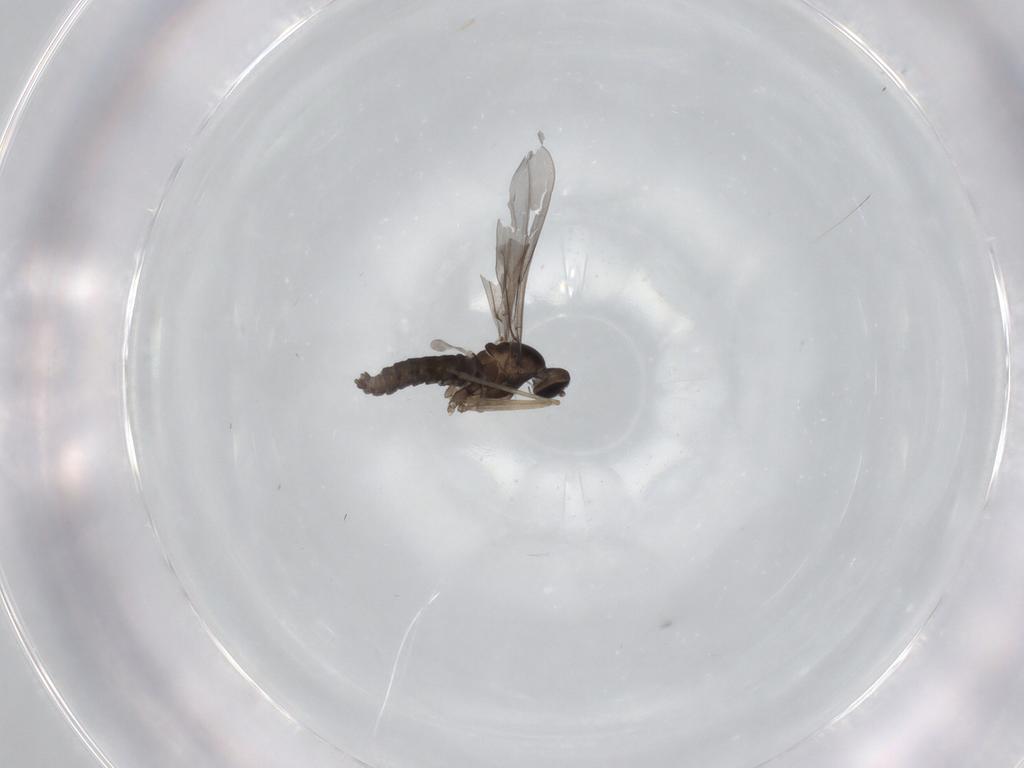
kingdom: Animalia
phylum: Arthropoda
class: Insecta
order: Diptera
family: Cecidomyiidae
